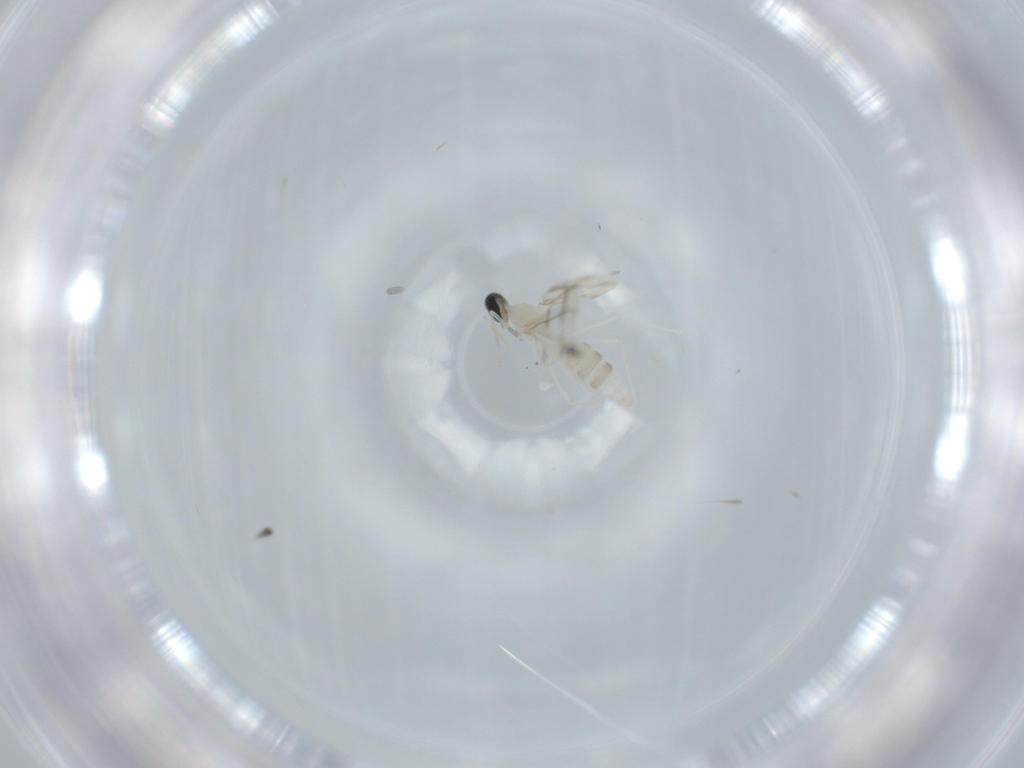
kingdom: Animalia
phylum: Arthropoda
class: Insecta
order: Diptera
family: Cecidomyiidae
